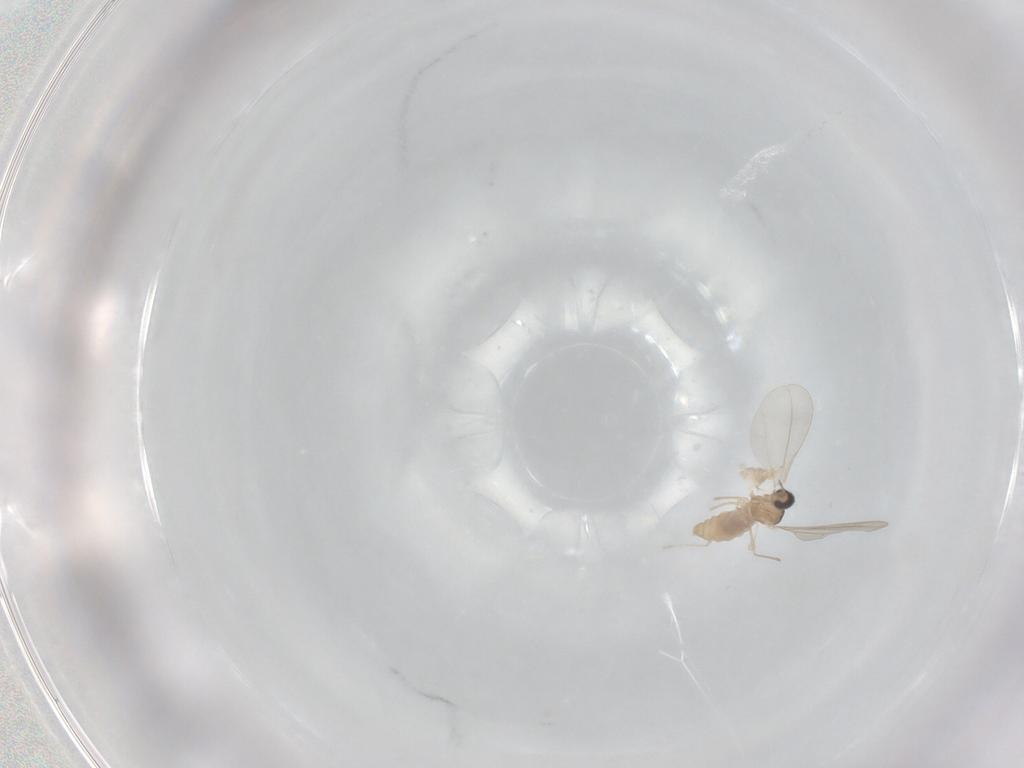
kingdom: Animalia
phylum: Arthropoda
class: Insecta
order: Diptera
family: Cecidomyiidae
